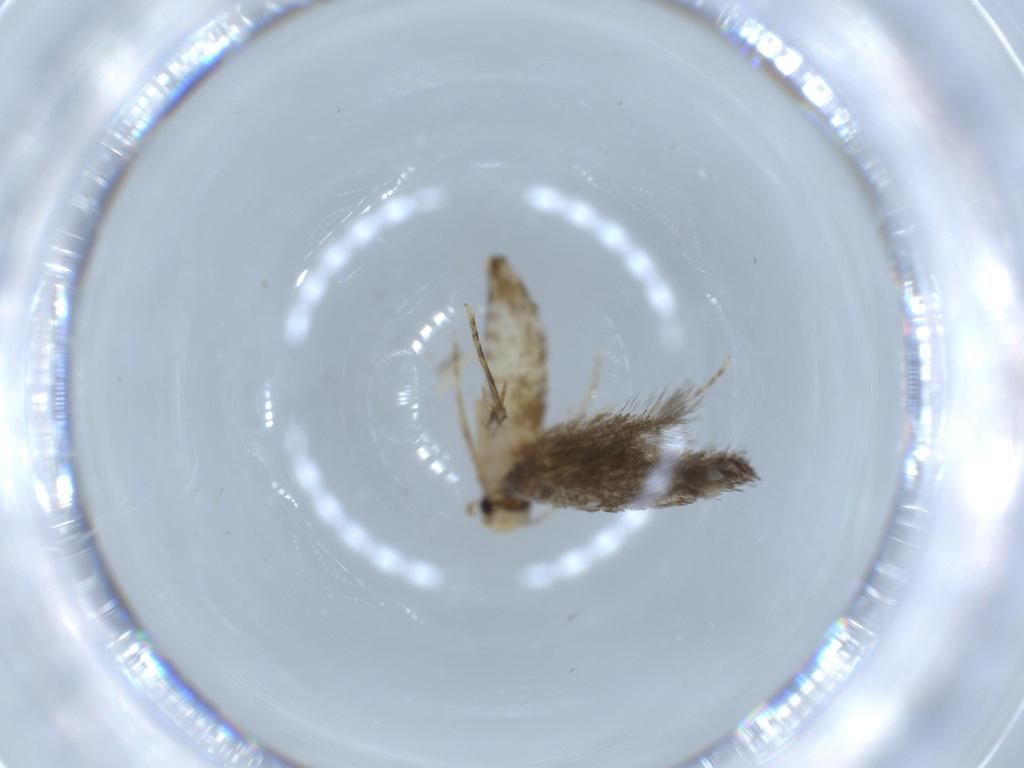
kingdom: Animalia
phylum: Arthropoda
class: Insecta
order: Lepidoptera
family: Tineidae
